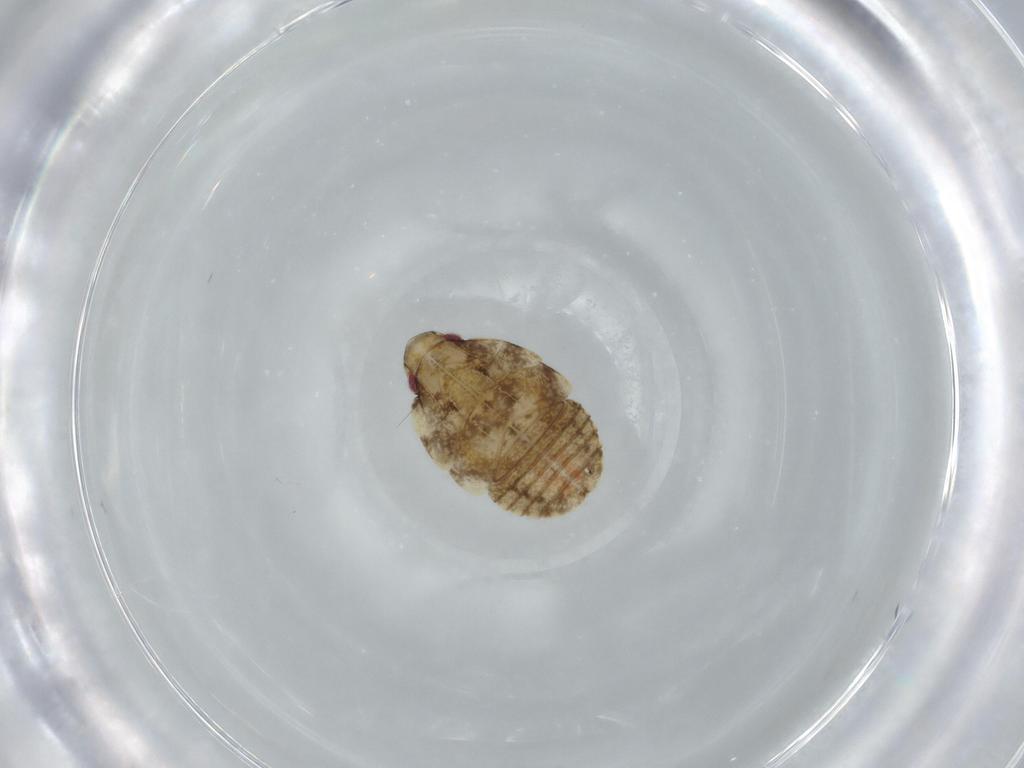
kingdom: Animalia
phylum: Arthropoda
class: Insecta
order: Hemiptera
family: Flatidae
